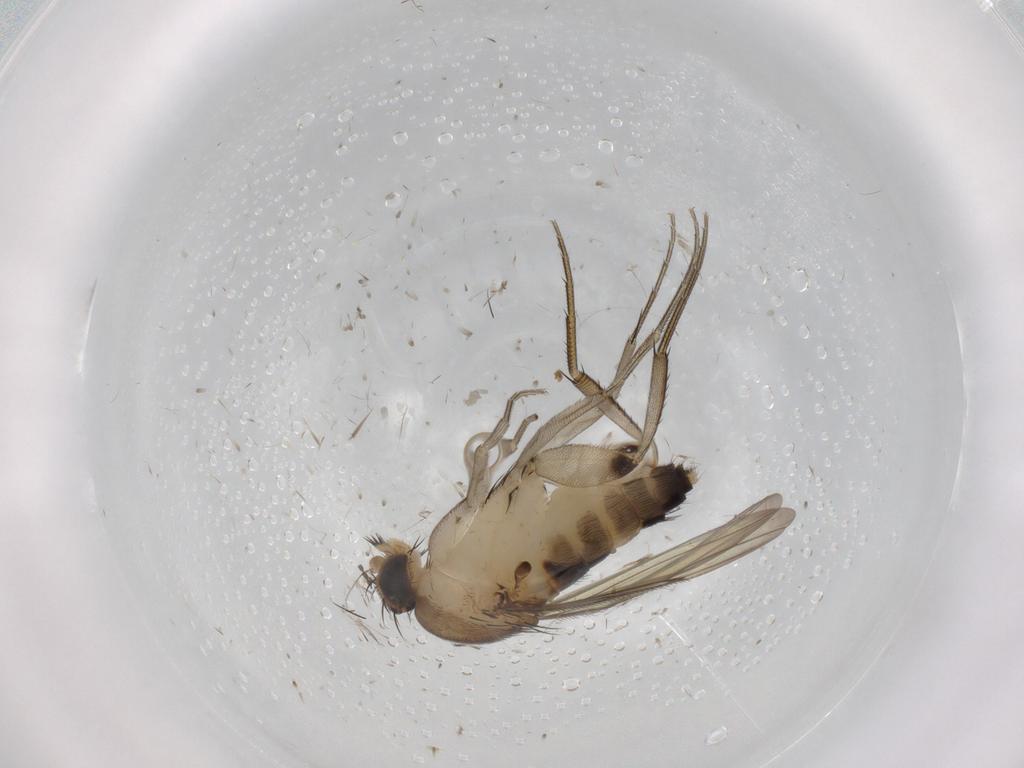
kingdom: Animalia
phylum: Arthropoda
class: Insecta
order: Diptera
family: Phoridae
